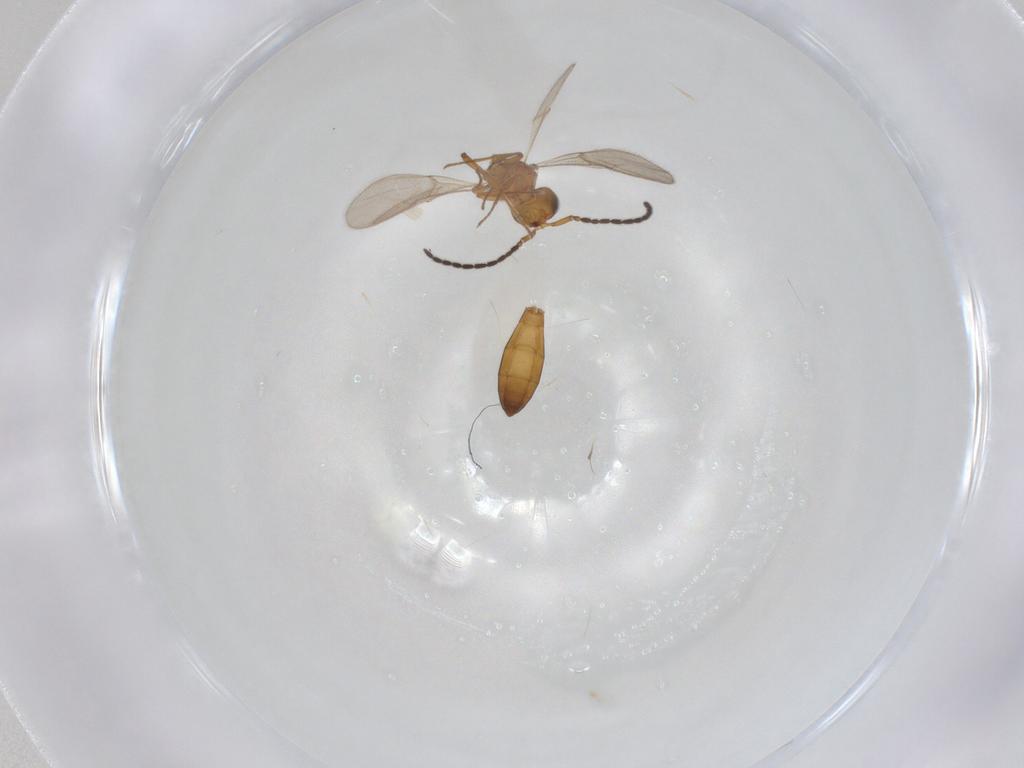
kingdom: Animalia
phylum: Arthropoda
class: Insecta
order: Hymenoptera
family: Scelionidae
